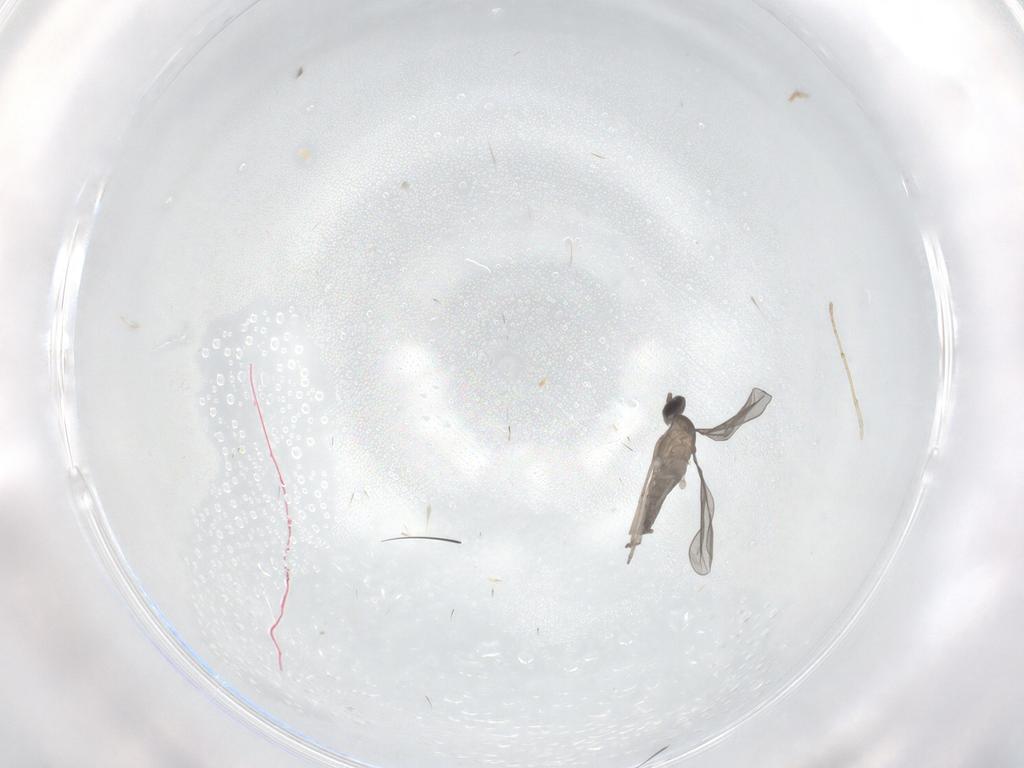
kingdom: Animalia
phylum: Arthropoda
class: Insecta
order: Diptera
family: Cecidomyiidae
